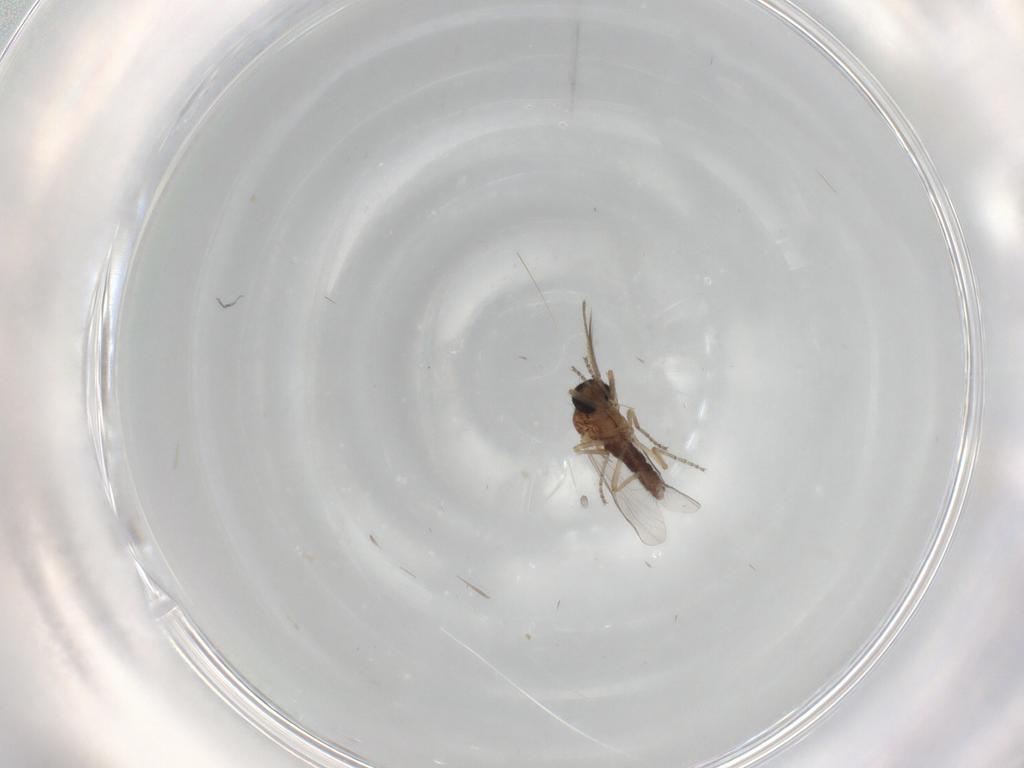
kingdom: Animalia
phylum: Arthropoda
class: Insecta
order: Diptera
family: Ceratopogonidae
